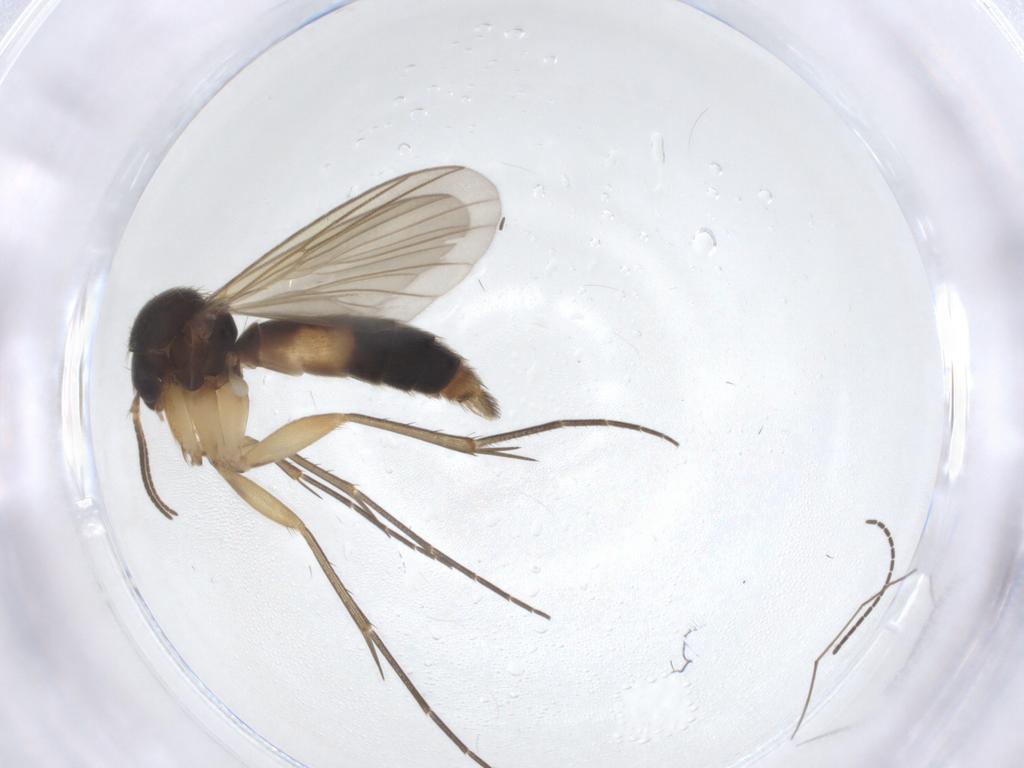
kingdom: Animalia
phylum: Arthropoda
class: Insecta
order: Diptera
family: Sciaridae
